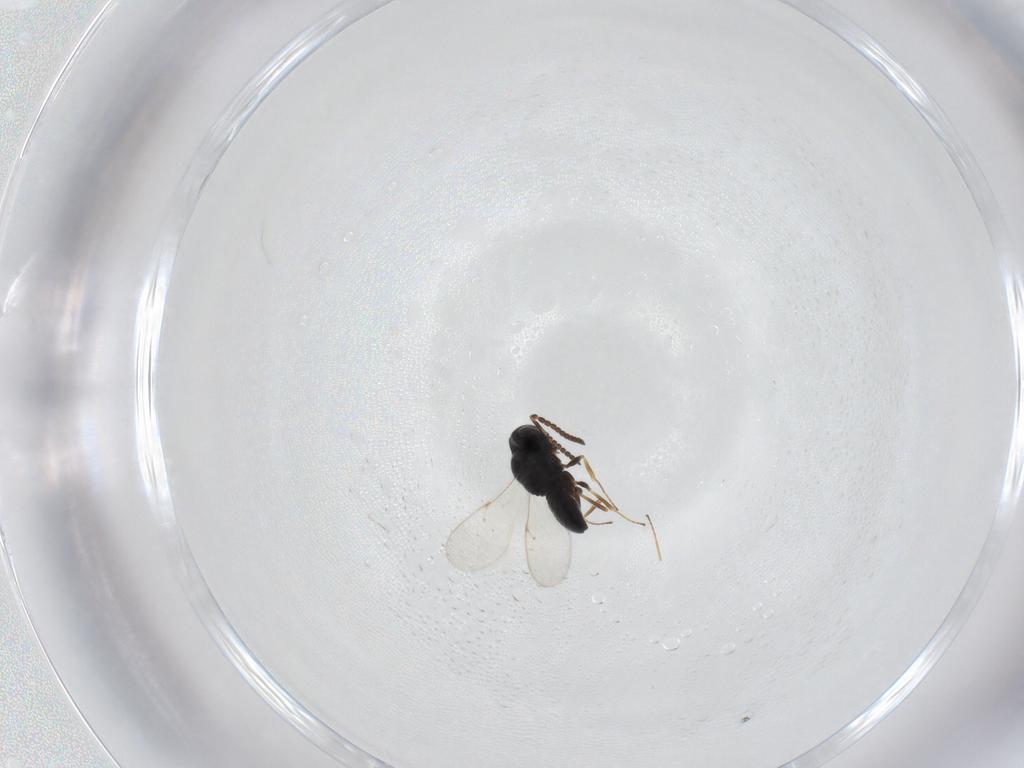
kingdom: Animalia
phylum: Arthropoda
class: Insecta
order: Hymenoptera
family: Scelionidae
